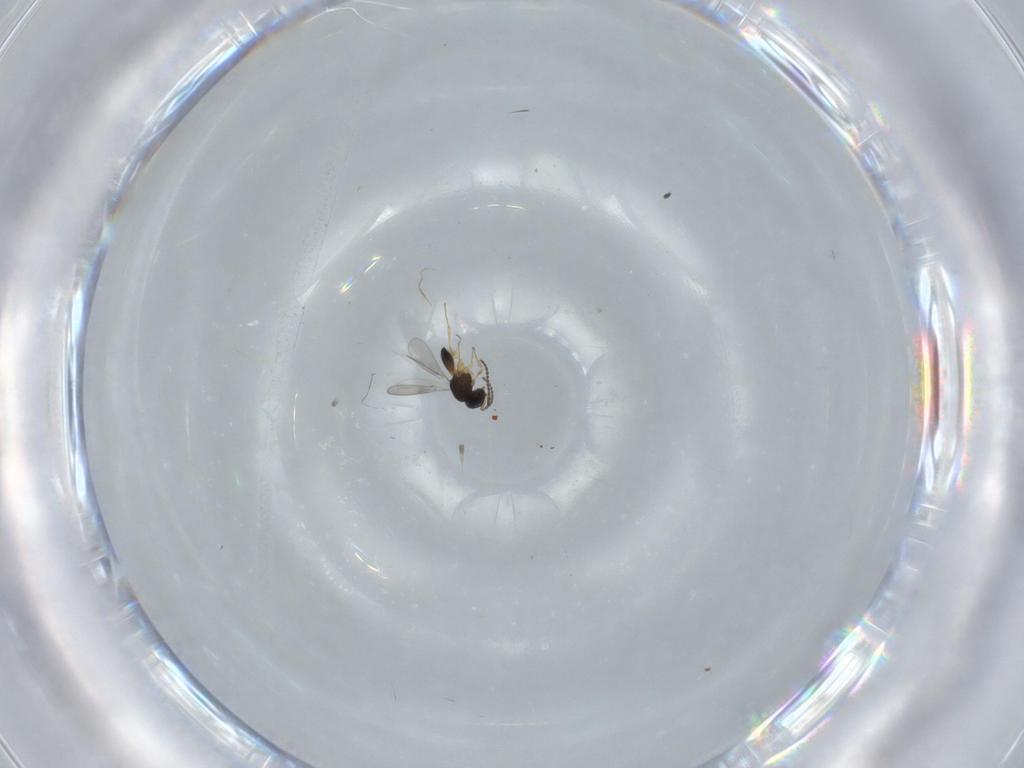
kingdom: Animalia
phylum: Arthropoda
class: Insecta
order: Hymenoptera
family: Scelionidae
